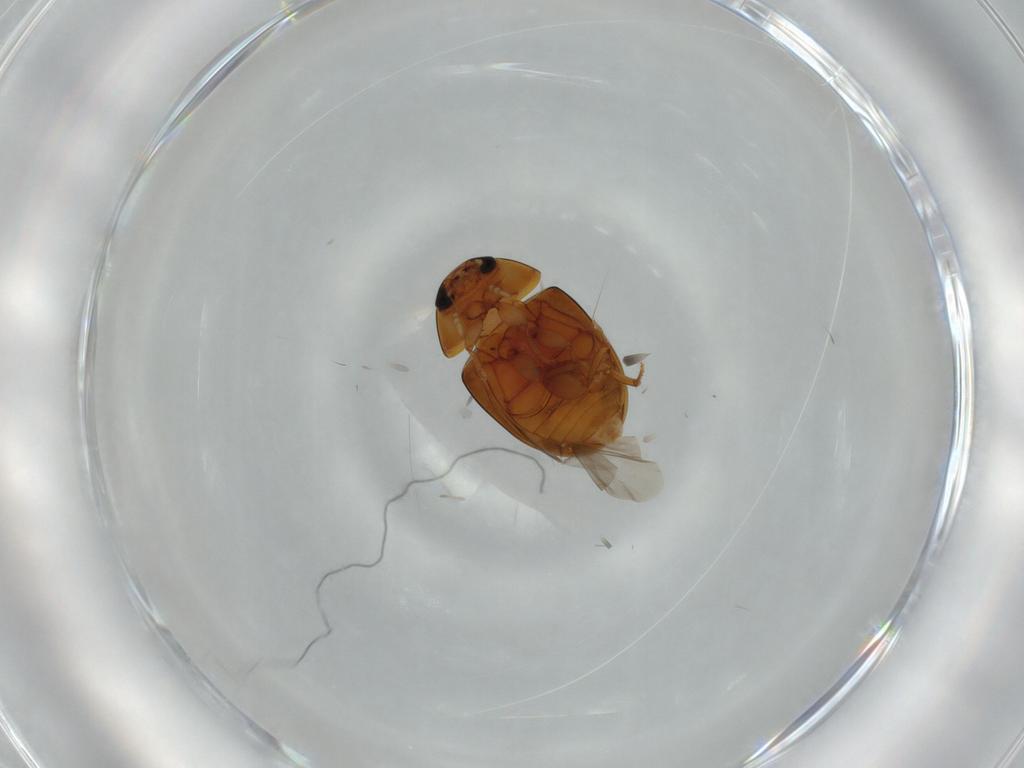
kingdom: Animalia
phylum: Arthropoda
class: Insecta
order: Coleoptera
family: Phalacridae
